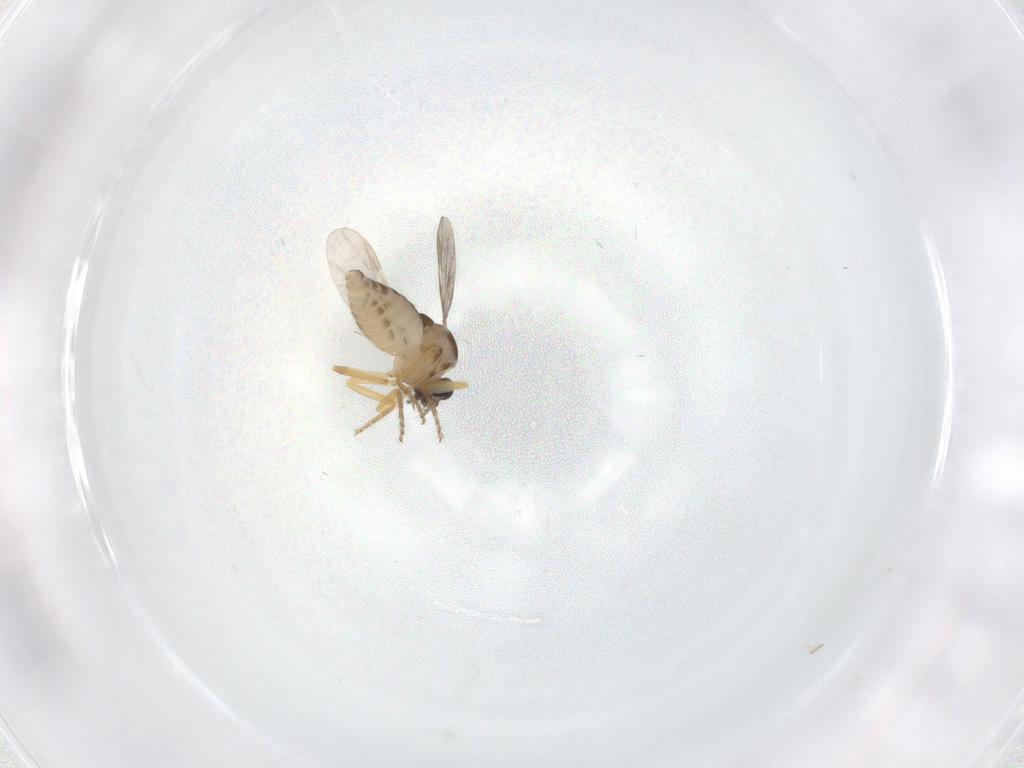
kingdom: Animalia
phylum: Arthropoda
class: Insecta
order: Diptera
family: Ceratopogonidae
